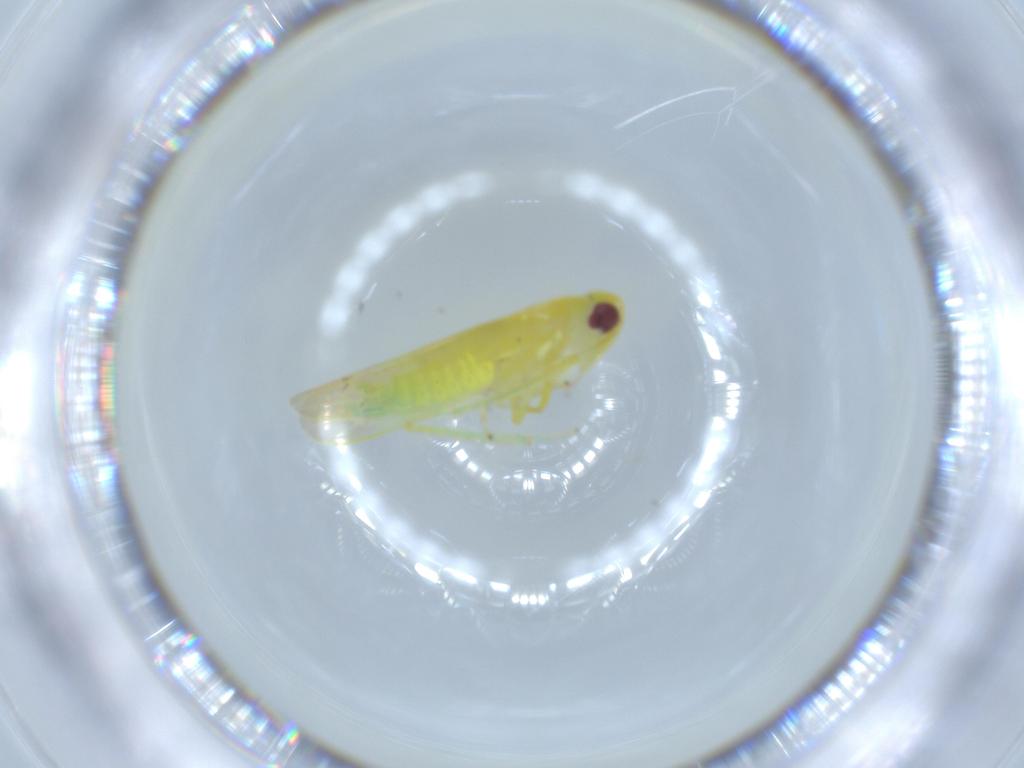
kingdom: Animalia
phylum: Arthropoda
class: Insecta
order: Hemiptera
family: Cicadellidae
